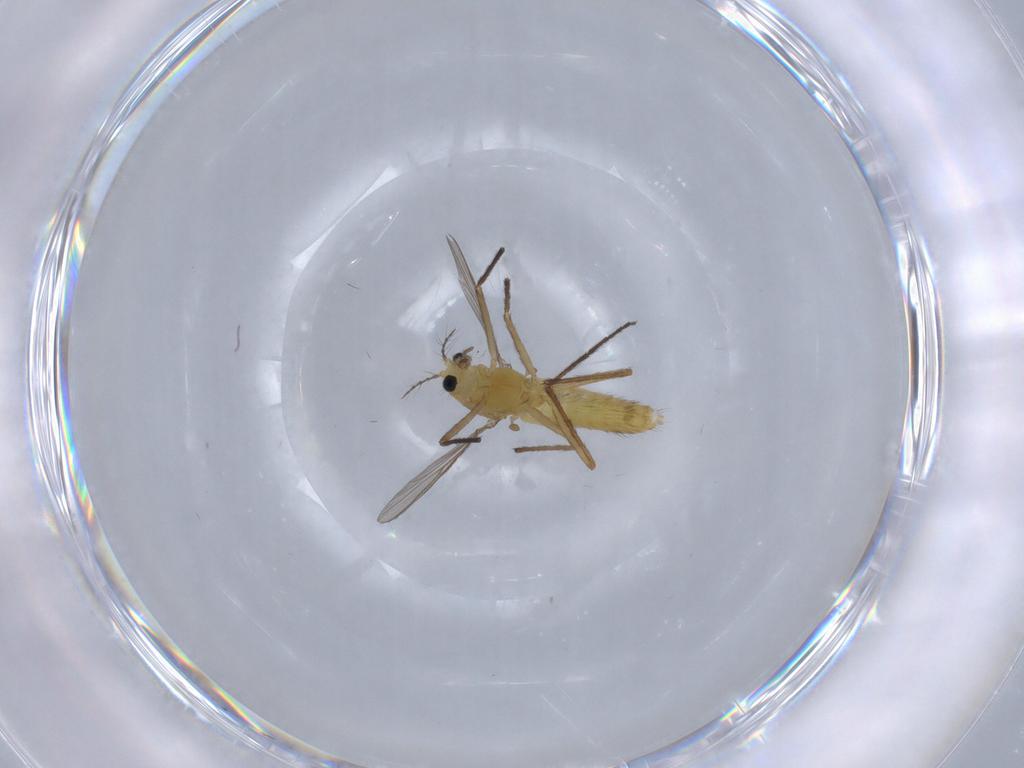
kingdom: Animalia
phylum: Arthropoda
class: Insecta
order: Diptera
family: Chironomidae
